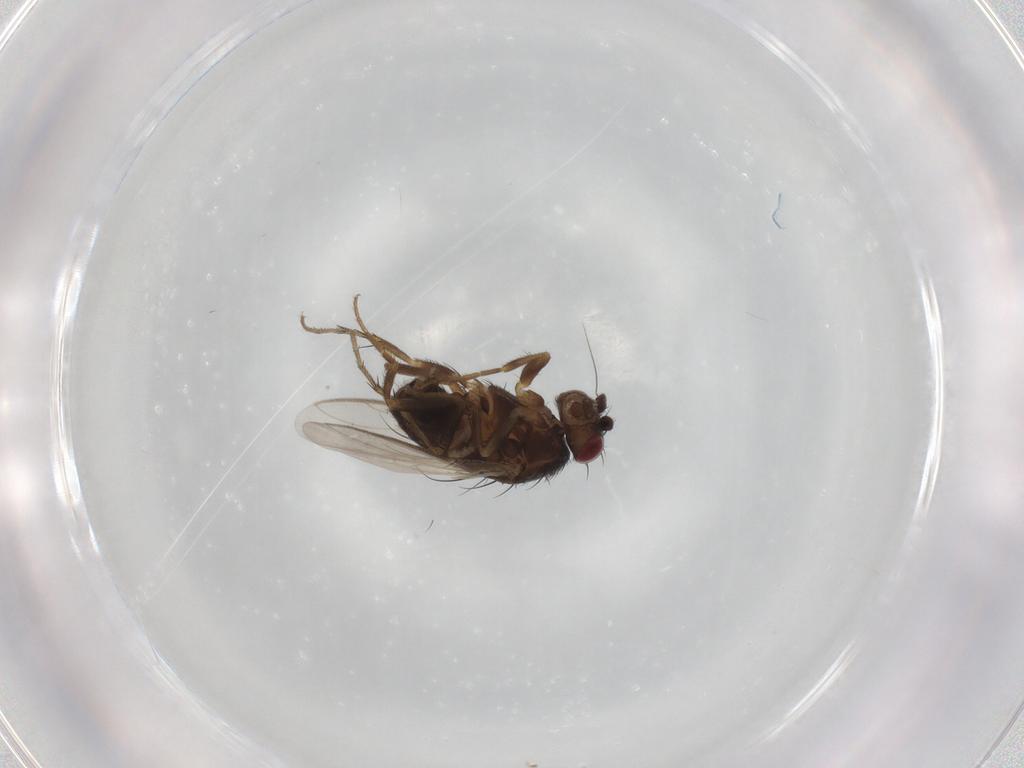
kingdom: Animalia
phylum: Arthropoda
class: Insecta
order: Diptera
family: Sphaeroceridae
